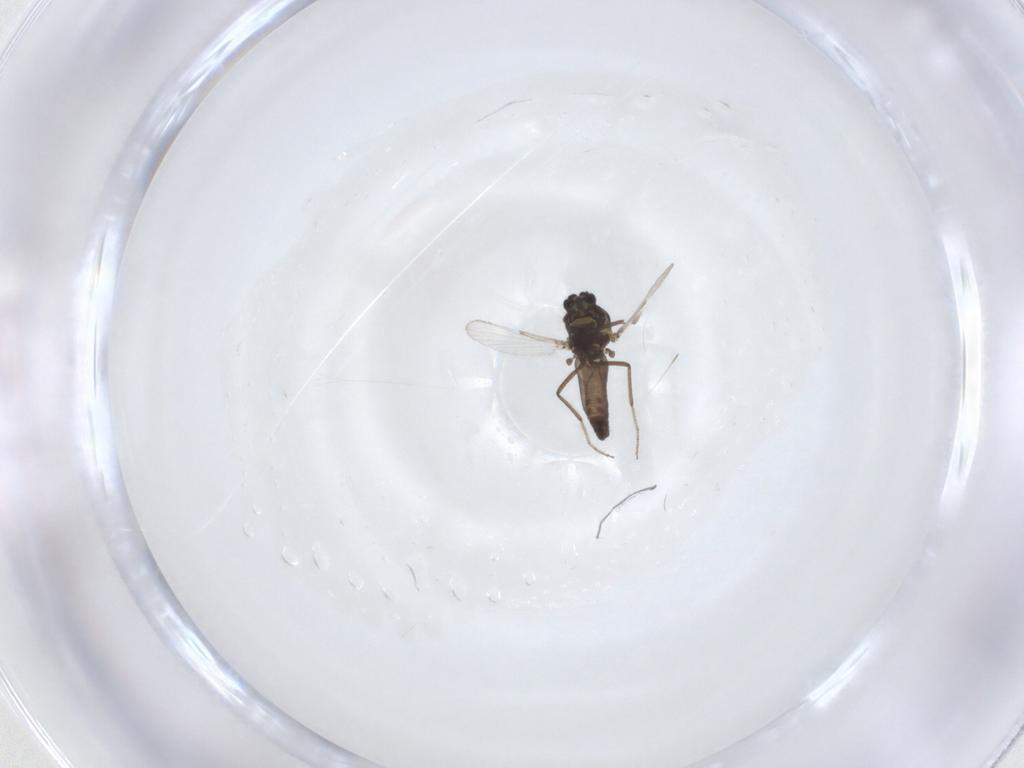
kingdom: Animalia
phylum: Arthropoda
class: Insecta
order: Diptera
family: Ceratopogonidae
